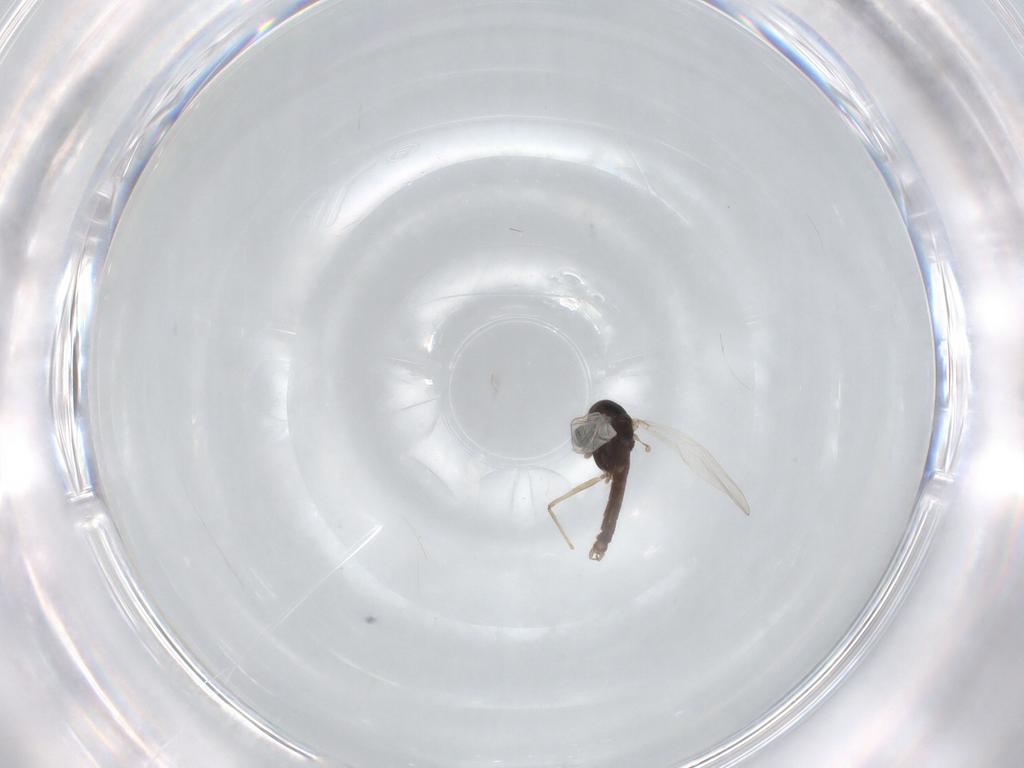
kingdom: Animalia
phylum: Arthropoda
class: Insecta
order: Diptera
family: Chironomidae
